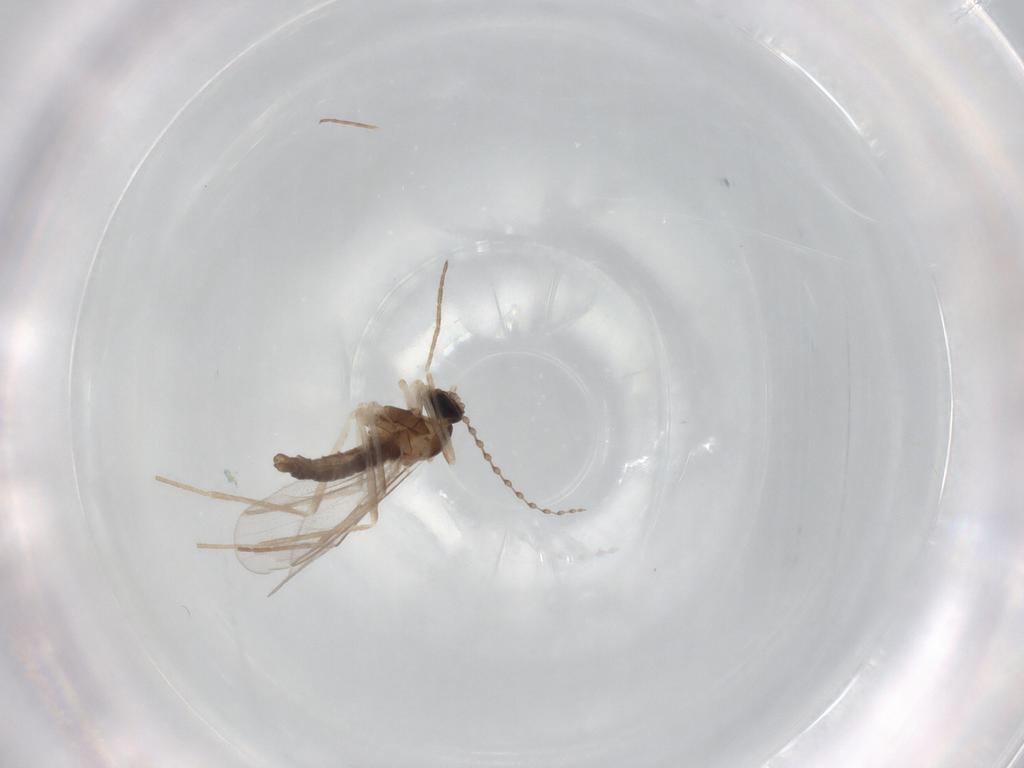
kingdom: Animalia
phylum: Arthropoda
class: Insecta
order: Diptera
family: Cecidomyiidae
